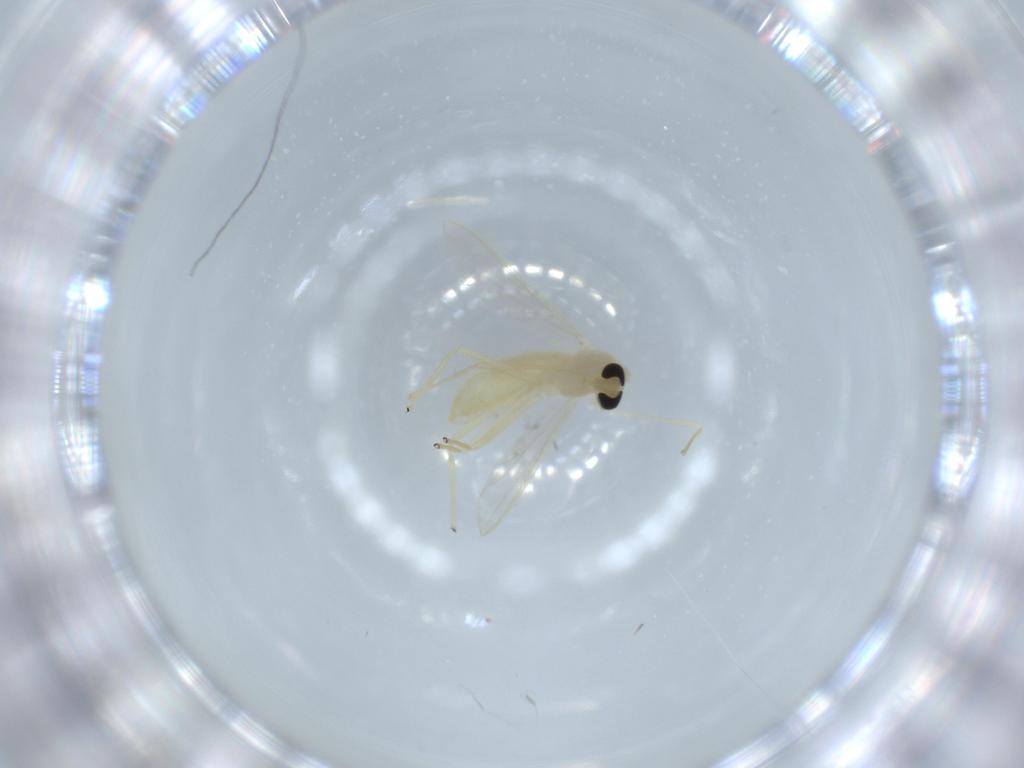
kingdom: Animalia
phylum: Arthropoda
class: Insecta
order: Diptera
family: Chironomidae
